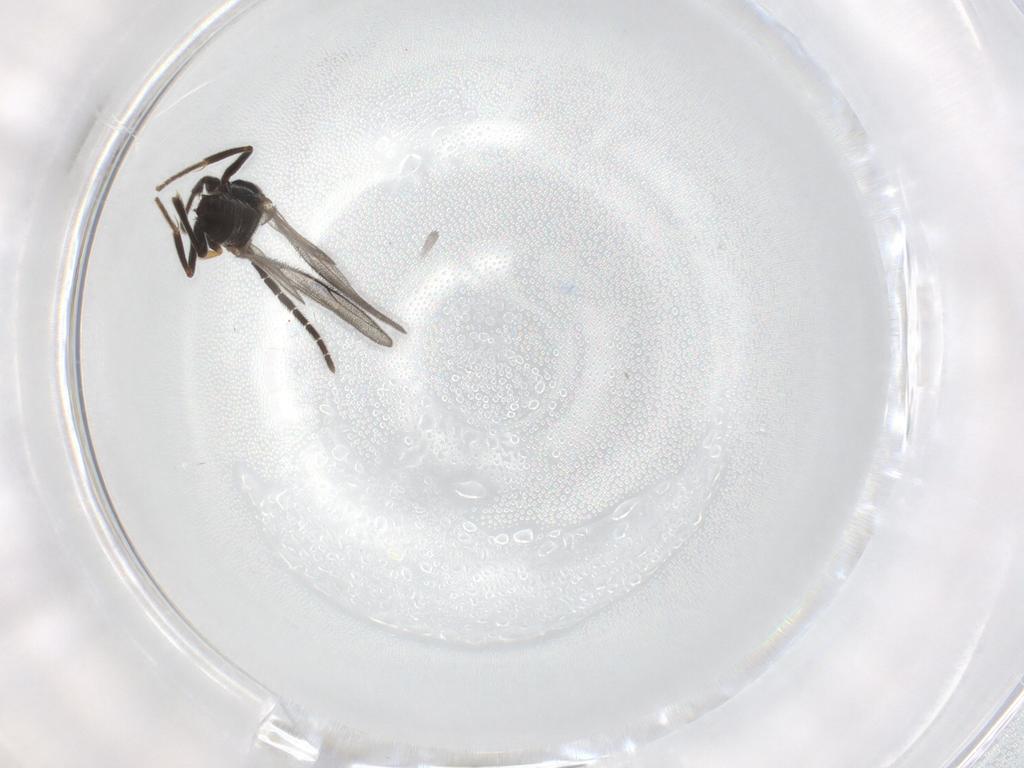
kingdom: Animalia
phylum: Arthropoda
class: Insecta
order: Hymenoptera
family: Dryinidae
